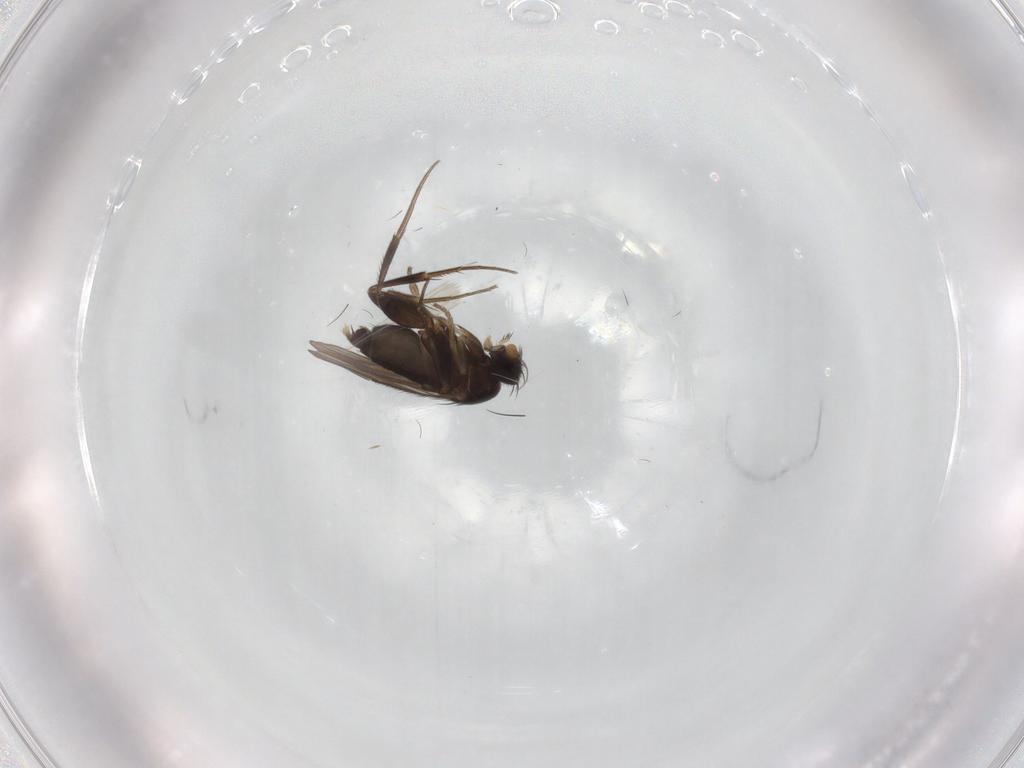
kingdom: Animalia
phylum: Arthropoda
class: Insecta
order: Diptera
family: Phoridae
